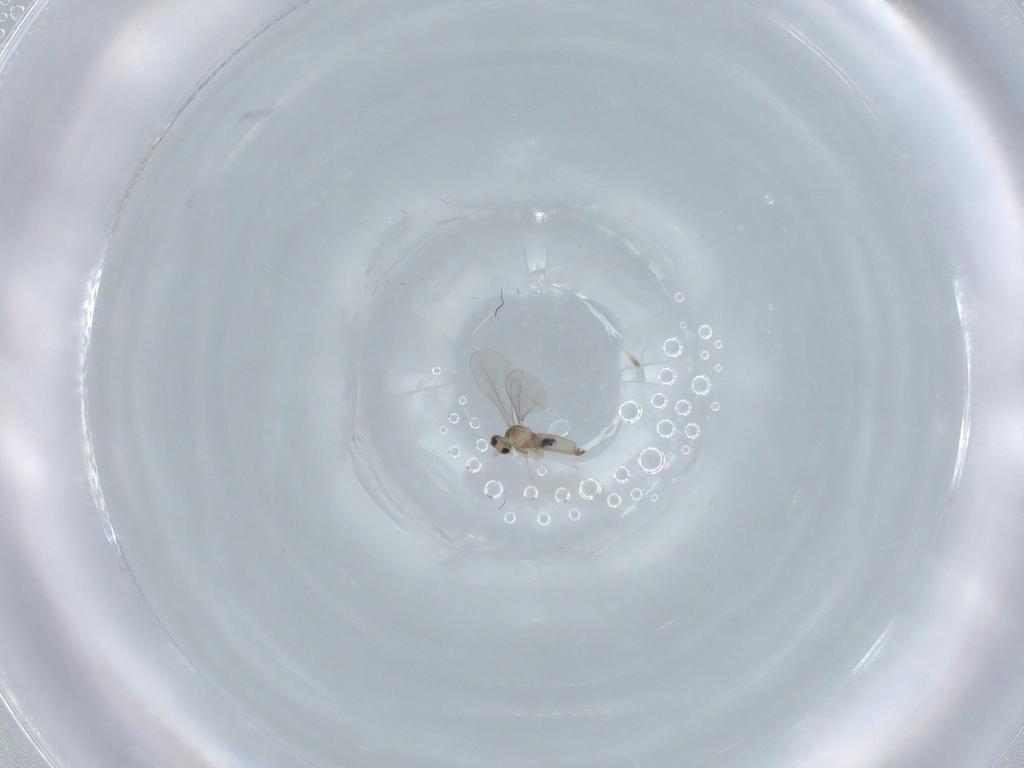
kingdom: Animalia
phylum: Arthropoda
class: Insecta
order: Diptera
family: Cecidomyiidae
